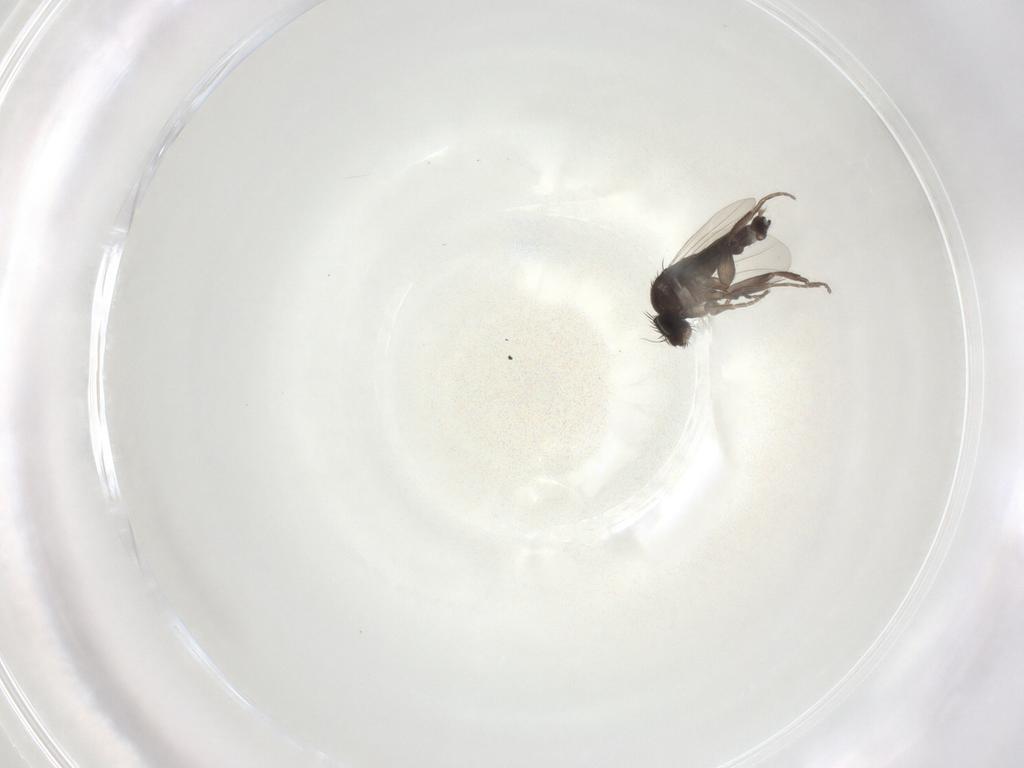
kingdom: Animalia
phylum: Arthropoda
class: Insecta
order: Diptera
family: Phoridae
